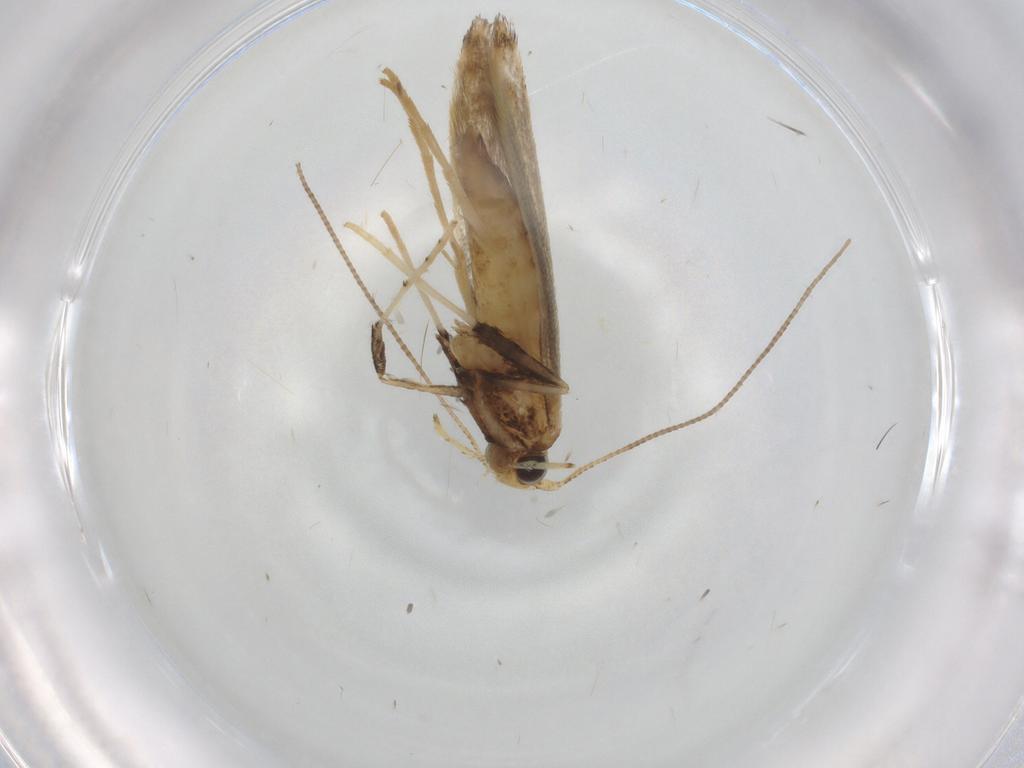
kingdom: Animalia
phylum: Arthropoda
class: Insecta
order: Lepidoptera
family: Gracillariidae
